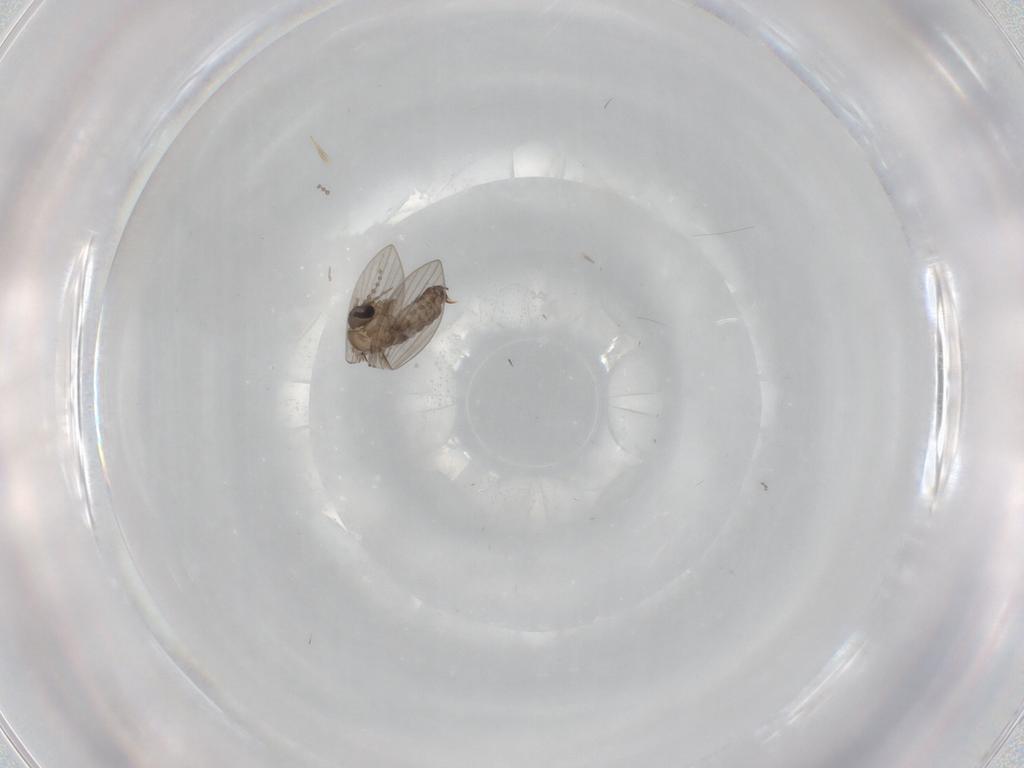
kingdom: Animalia
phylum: Arthropoda
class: Insecta
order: Diptera
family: Psychodidae
